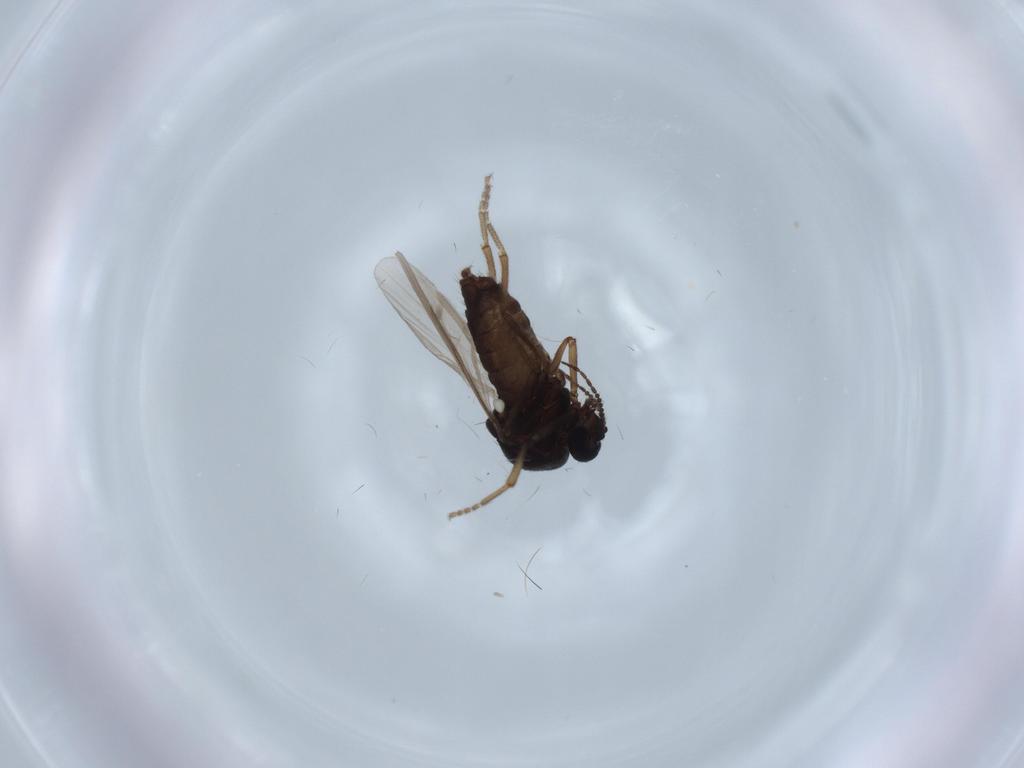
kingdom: Animalia
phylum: Arthropoda
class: Insecta
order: Diptera
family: Ceratopogonidae
